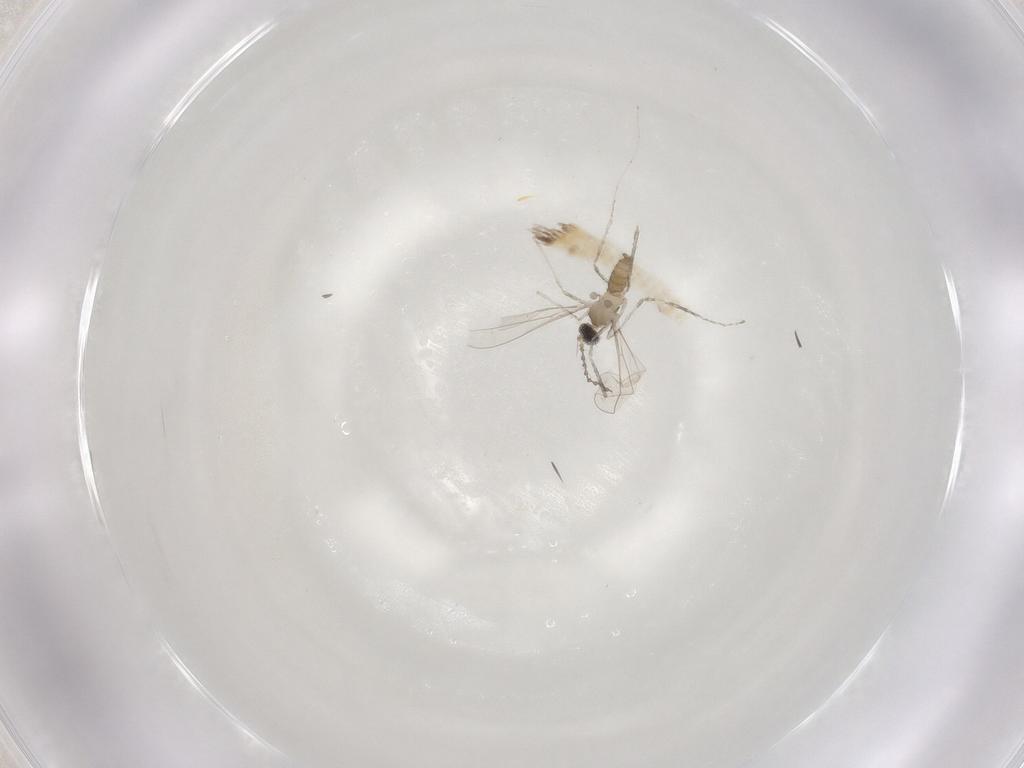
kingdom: Animalia
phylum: Arthropoda
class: Insecta
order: Diptera
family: Cecidomyiidae
